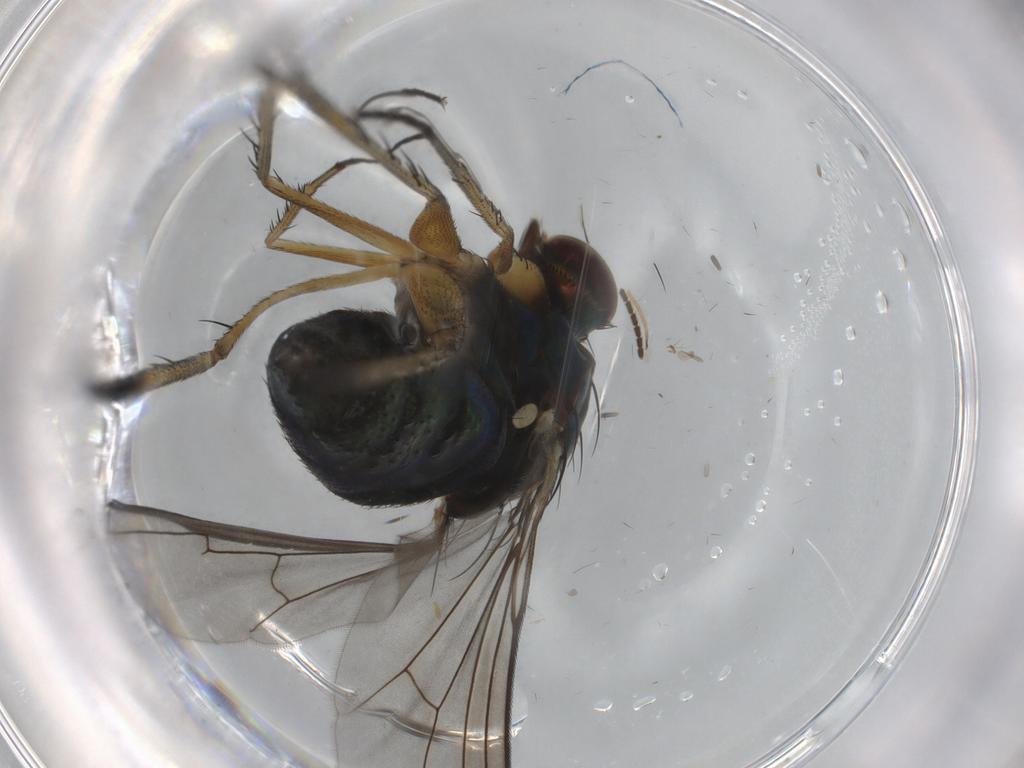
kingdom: Animalia
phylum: Arthropoda
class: Insecta
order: Diptera
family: Dolichopodidae
